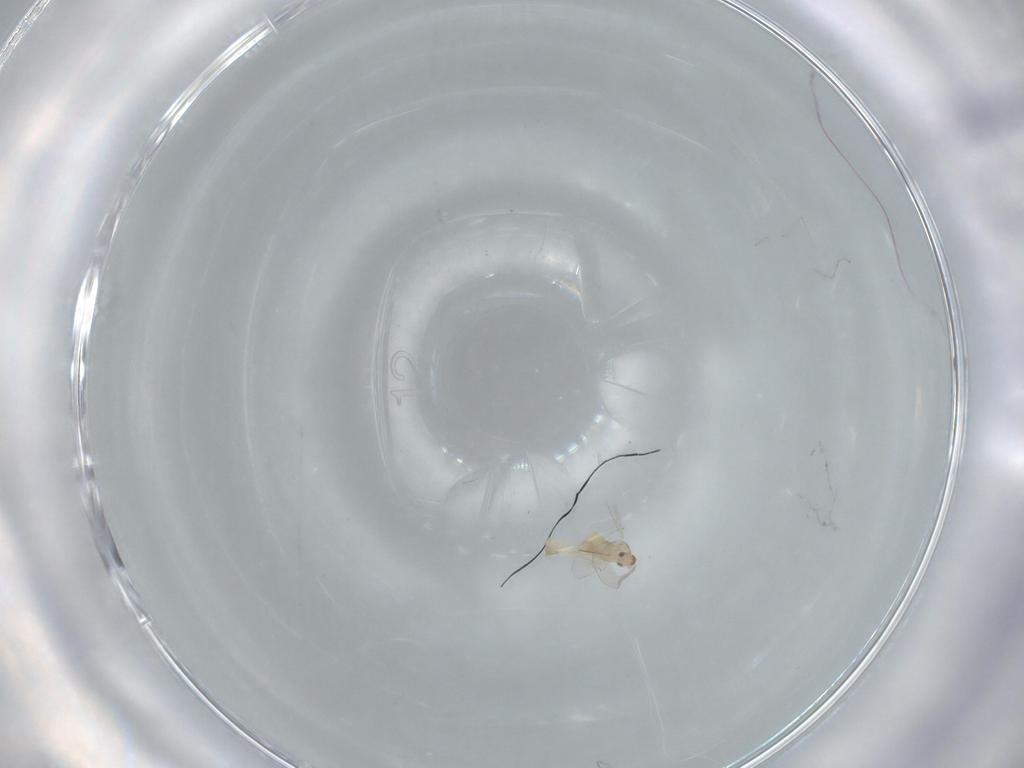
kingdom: Animalia
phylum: Arthropoda
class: Insecta
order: Diptera
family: Cecidomyiidae
